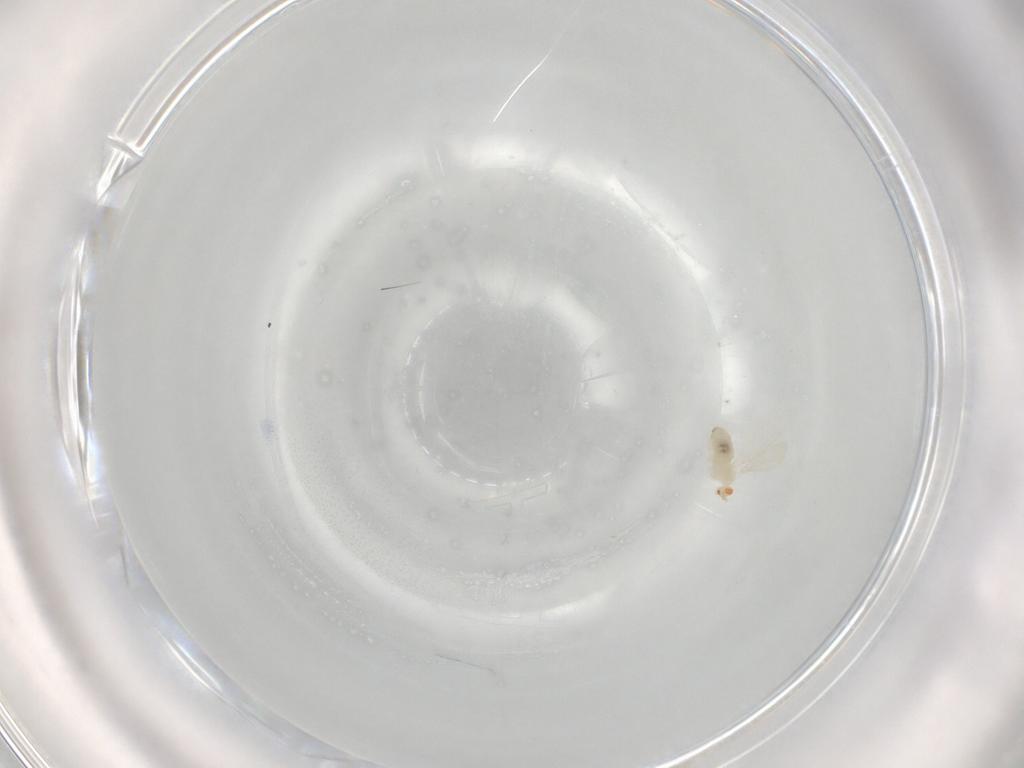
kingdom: Animalia
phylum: Arthropoda
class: Insecta
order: Diptera
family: Cecidomyiidae
